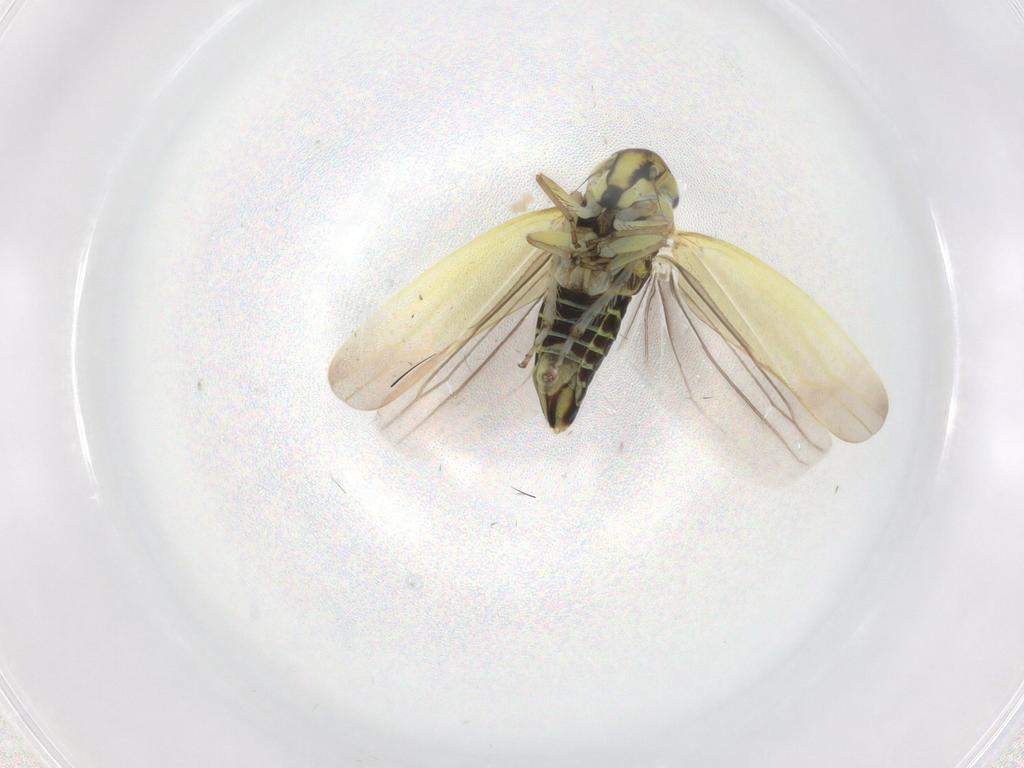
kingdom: Animalia
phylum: Arthropoda
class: Insecta
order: Hemiptera
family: Cicadellidae
